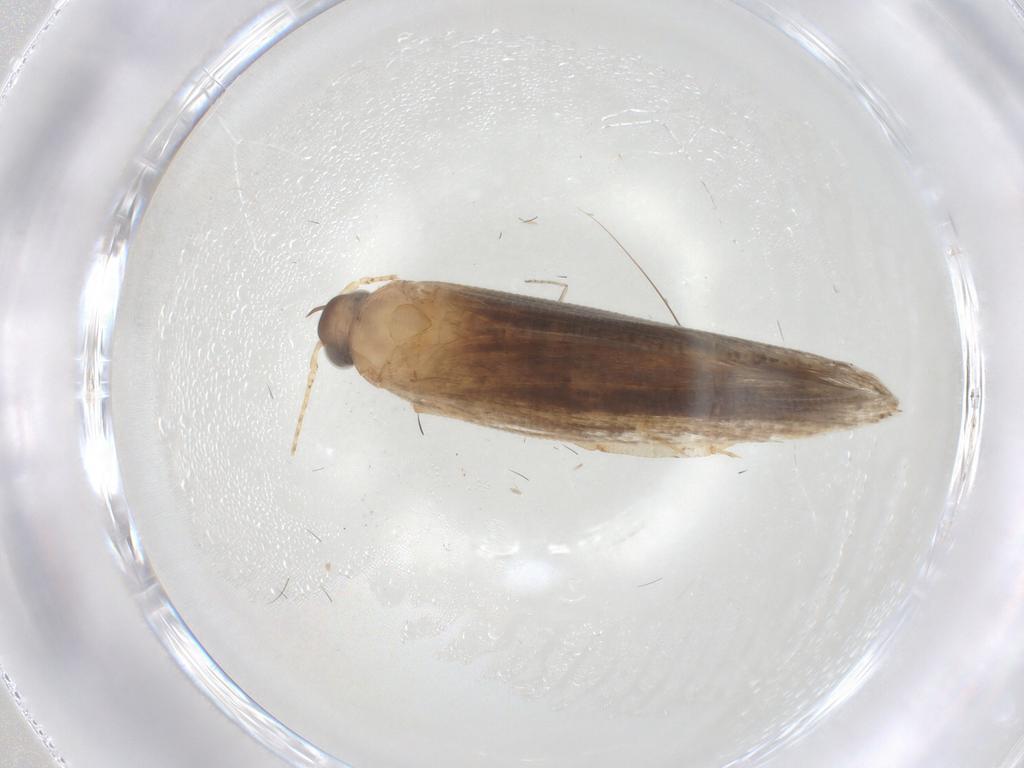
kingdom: Animalia
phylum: Arthropoda
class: Insecta
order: Lepidoptera
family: Gelechiidae
